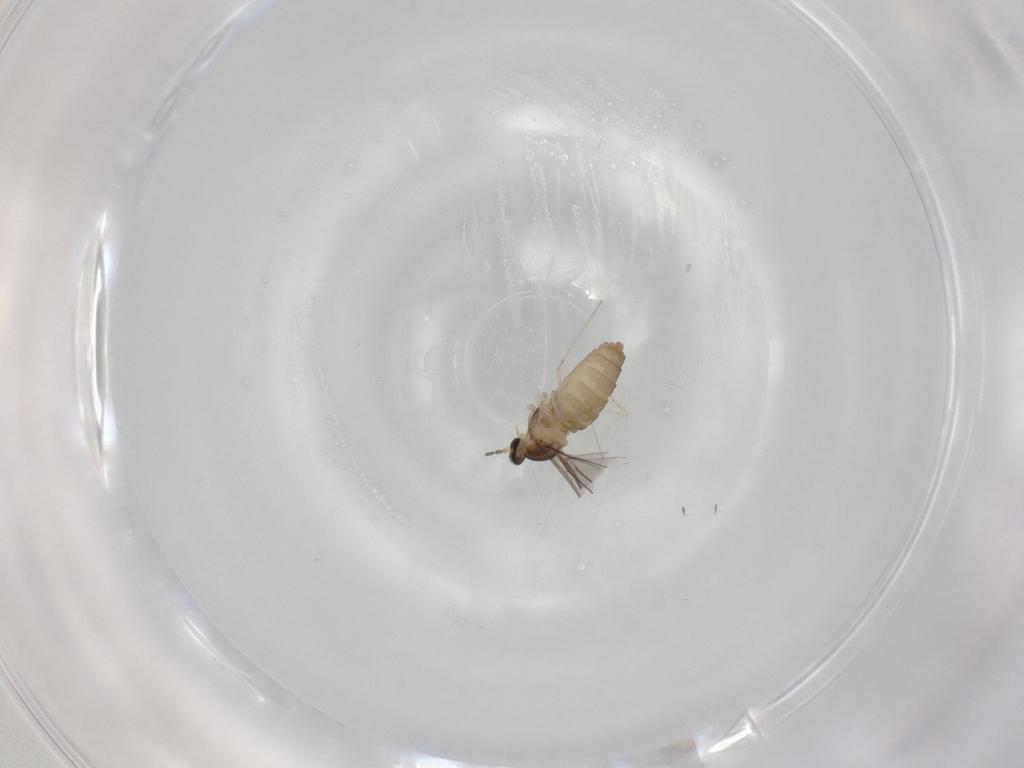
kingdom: Animalia
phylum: Arthropoda
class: Insecta
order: Diptera
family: Cecidomyiidae
